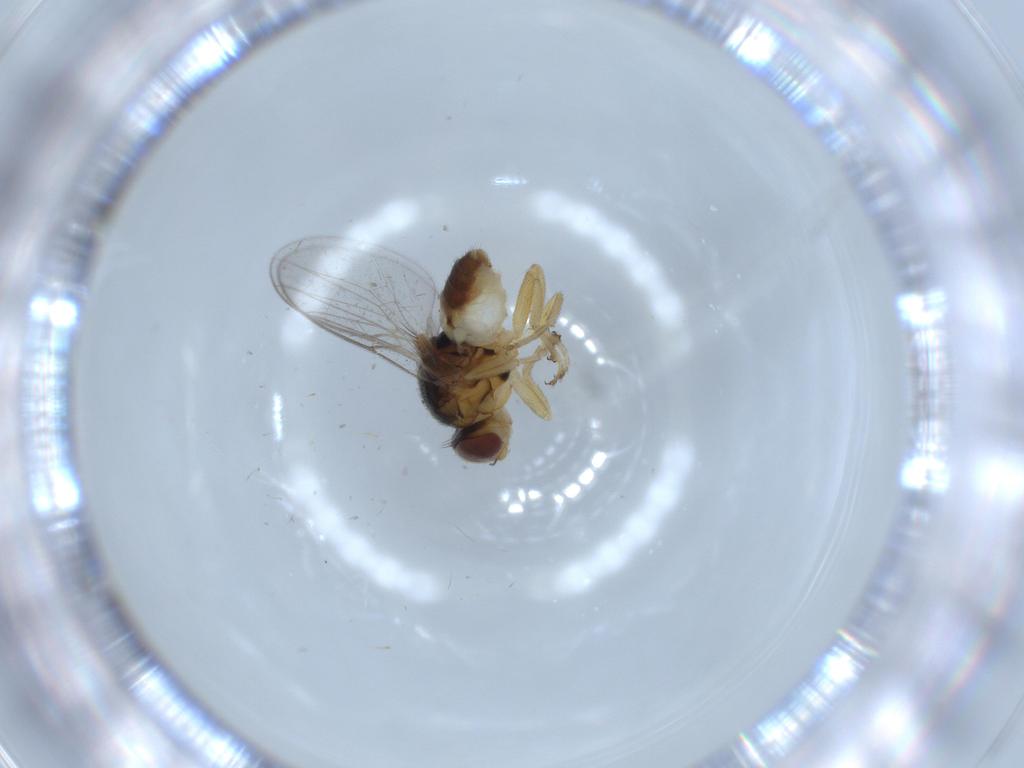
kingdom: Animalia
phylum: Arthropoda
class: Insecta
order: Diptera
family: Chloropidae
